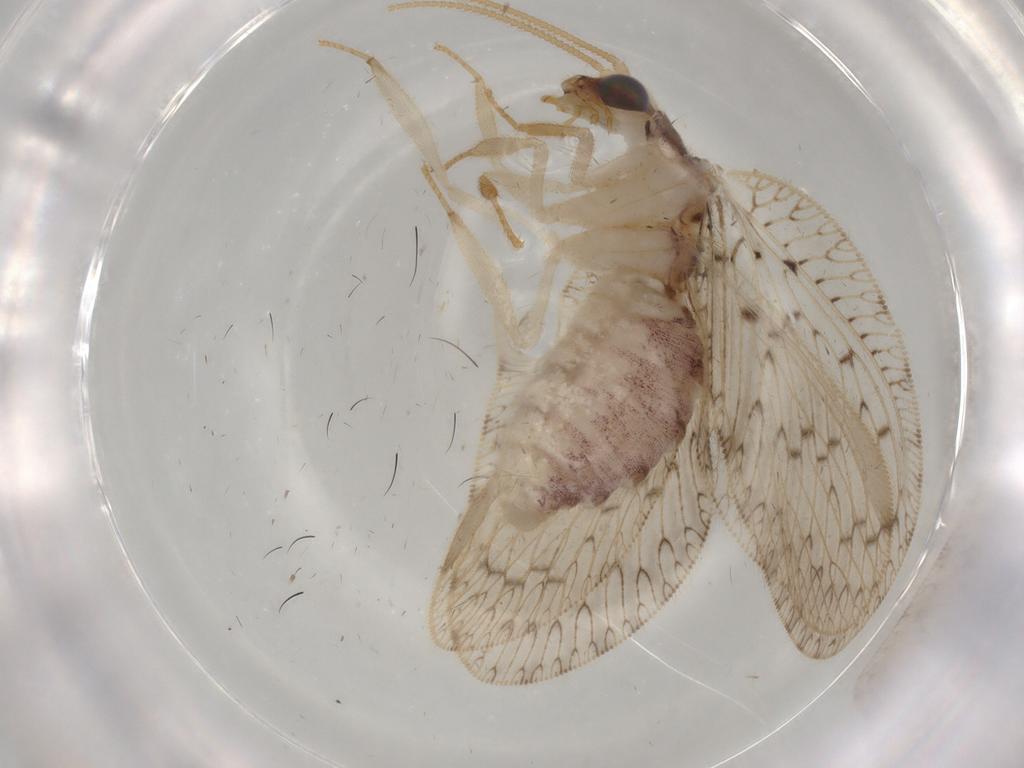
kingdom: Animalia
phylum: Arthropoda
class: Insecta
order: Neuroptera
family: Hemerobiidae
